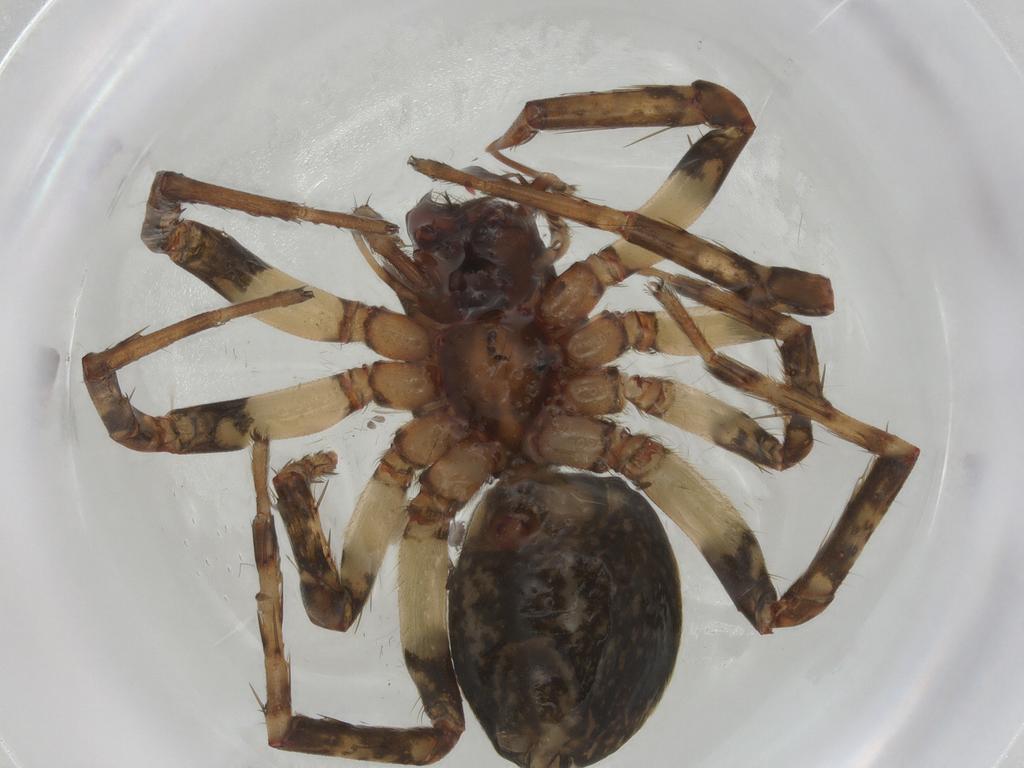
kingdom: Animalia
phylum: Arthropoda
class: Arachnida
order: Araneae
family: Anyphaenidae
